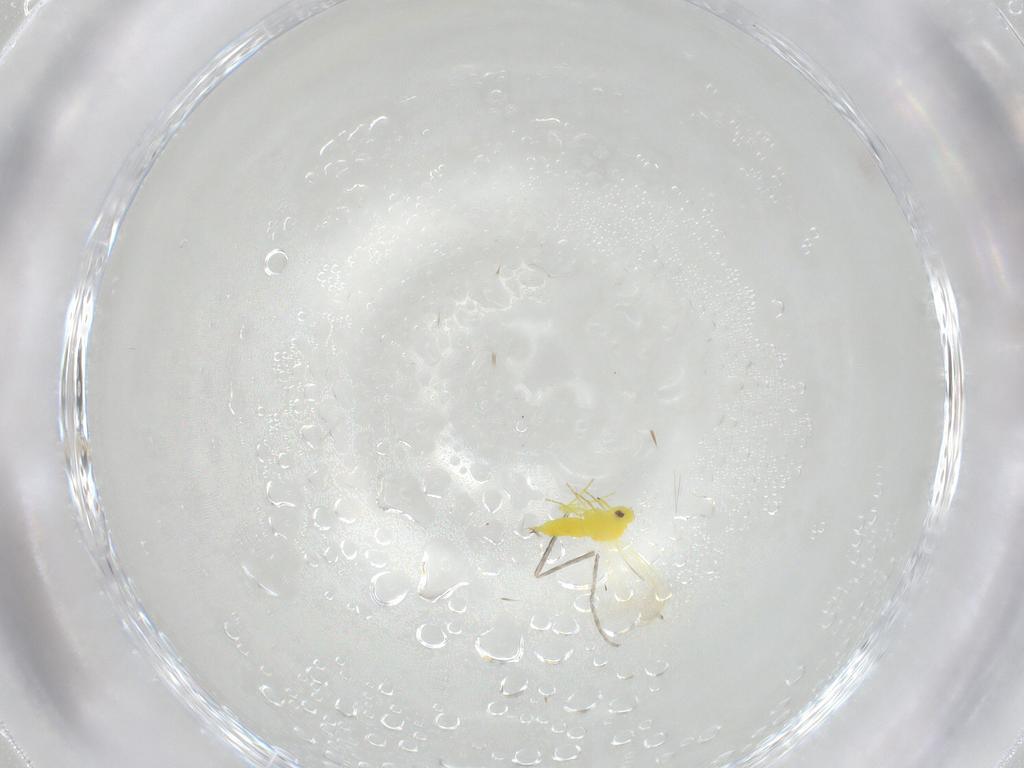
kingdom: Animalia
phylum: Arthropoda
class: Insecta
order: Hemiptera
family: Aleyrodidae
